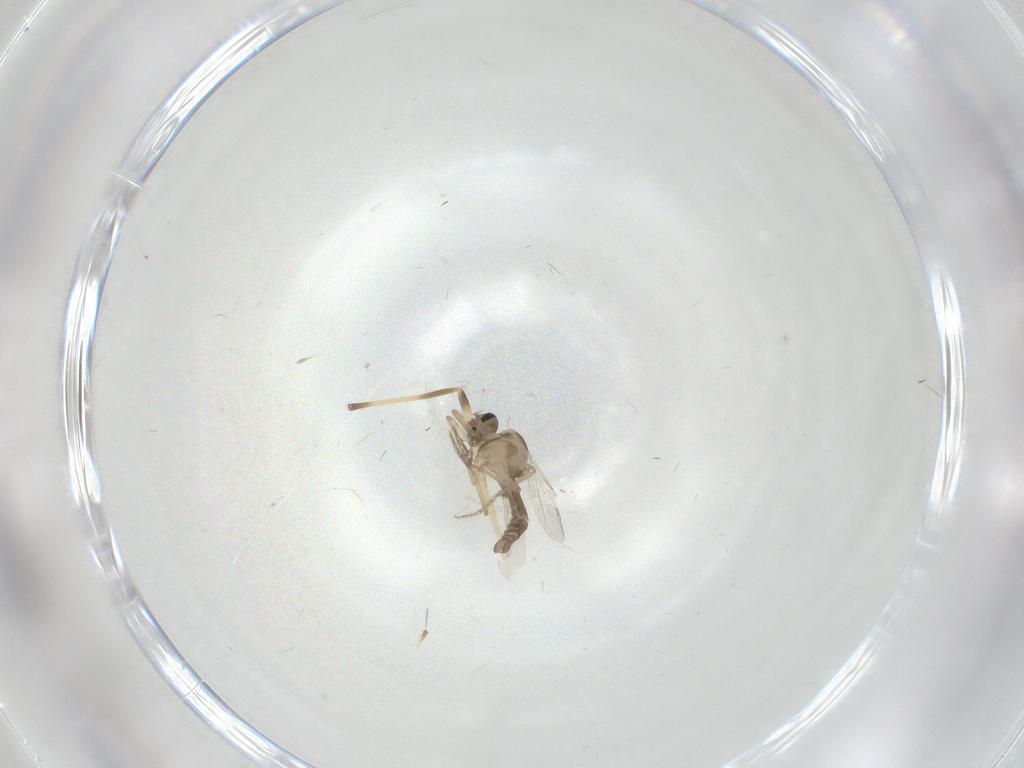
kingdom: Animalia
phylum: Arthropoda
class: Insecta
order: Diptera
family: Ceratopogonidae
